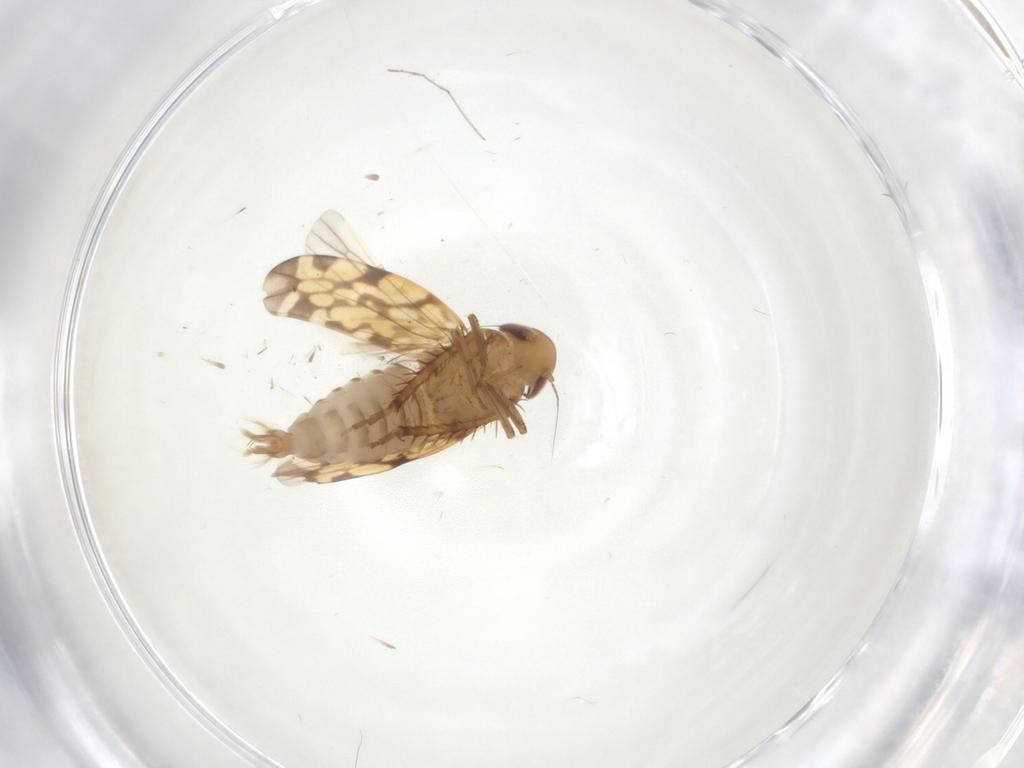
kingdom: Animalia
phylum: Arthropoda
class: Insecta
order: Hemiptera
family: Cicadellidae
